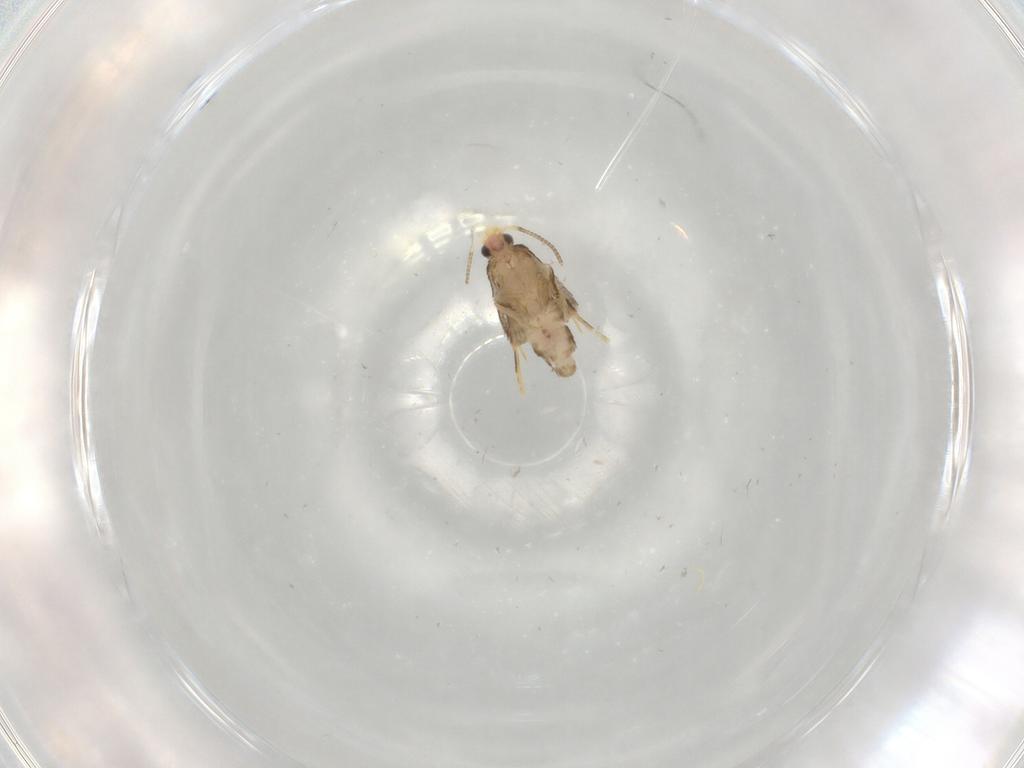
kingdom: Animalia
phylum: Arthropoda
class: Insecta
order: Lepidoptera
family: Nepticulidae
